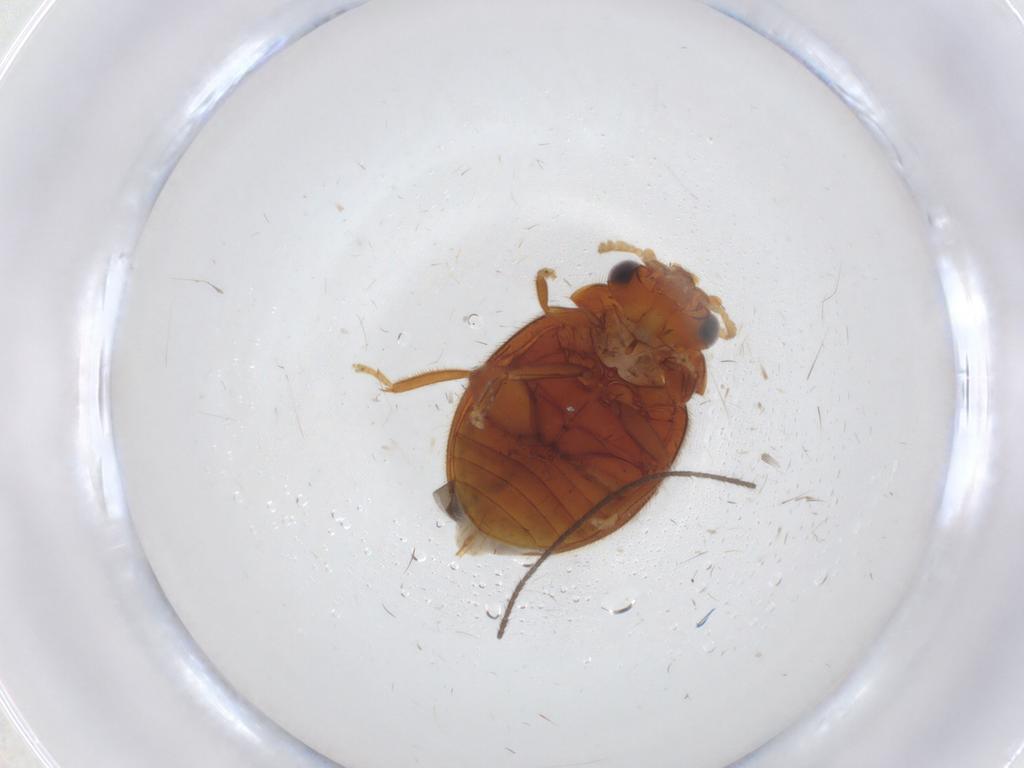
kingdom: Animalia
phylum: Arthropoda
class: Insecta
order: Coleoptera
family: Scirtidae
